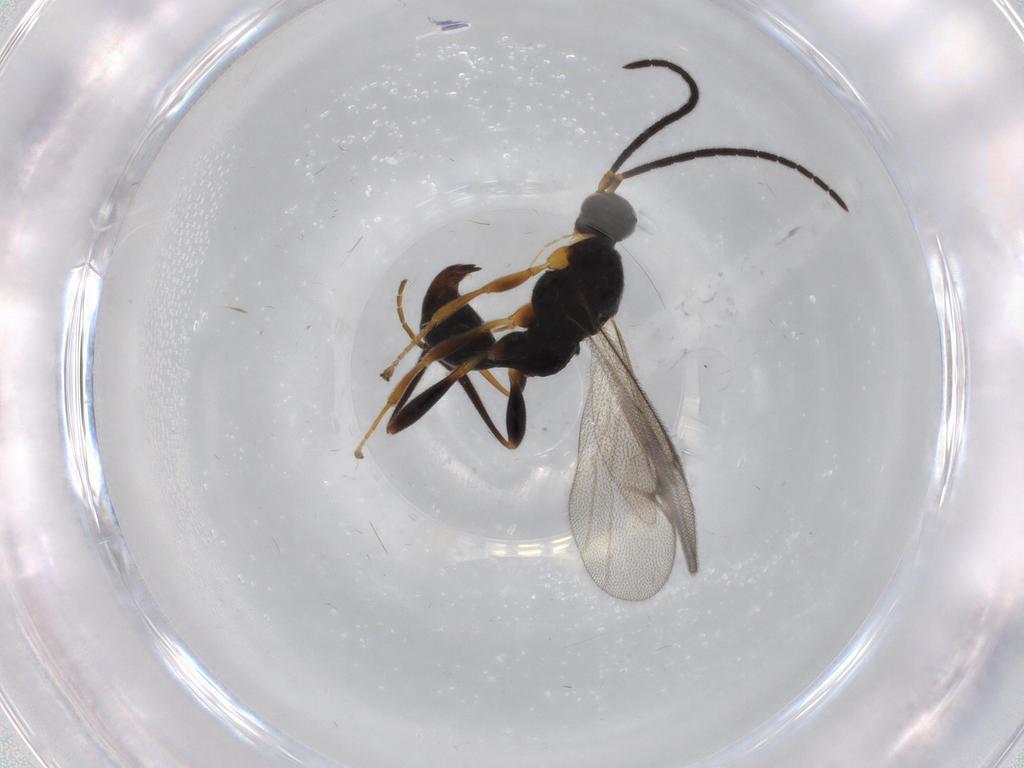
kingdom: Animalia
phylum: Arthropoda
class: Insecta
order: Hymenoptera
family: Proctotrupidae
